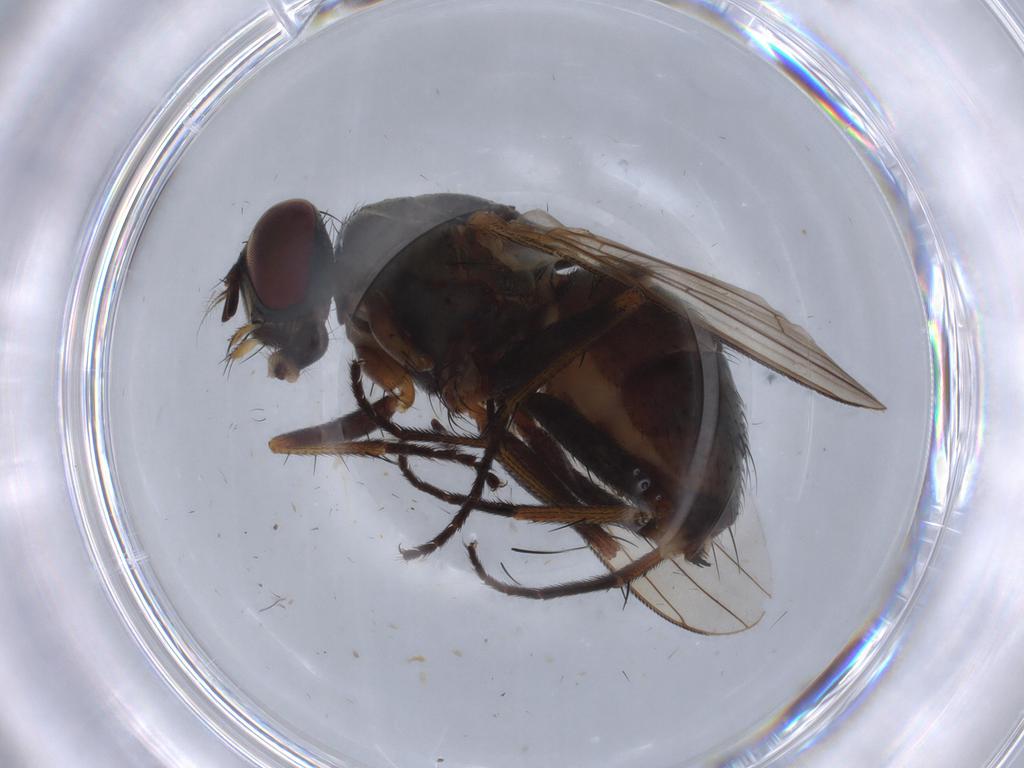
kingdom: Animalia
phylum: Arthropoda
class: Insecta
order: Diptera
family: Muscidae
